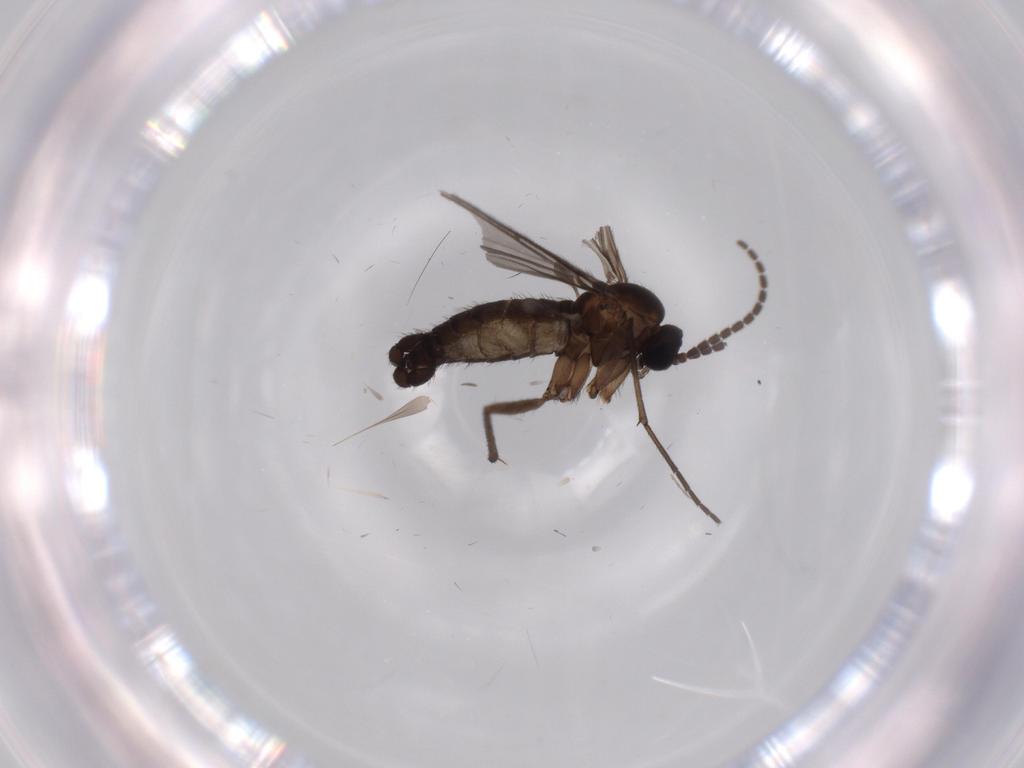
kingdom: Animalia
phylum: Arthropoda
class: Insecta
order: Diptera
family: Sciaridae
